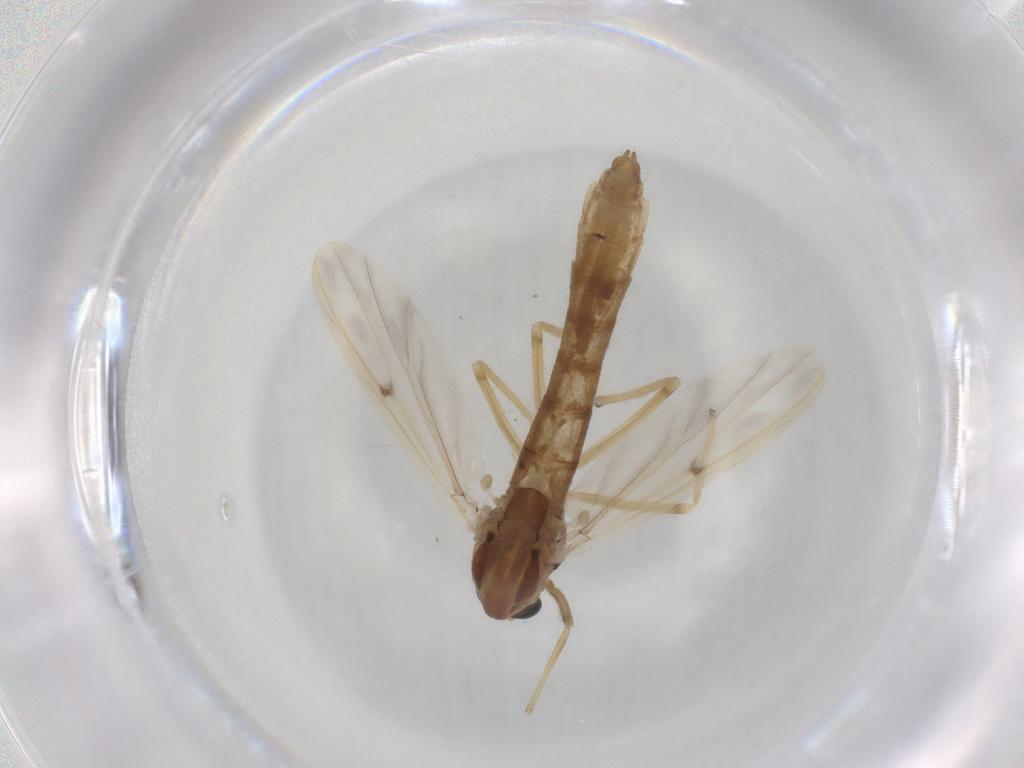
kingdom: Animalia
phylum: Arthropoda
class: Insecta
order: Diptera
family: Chironomidae
